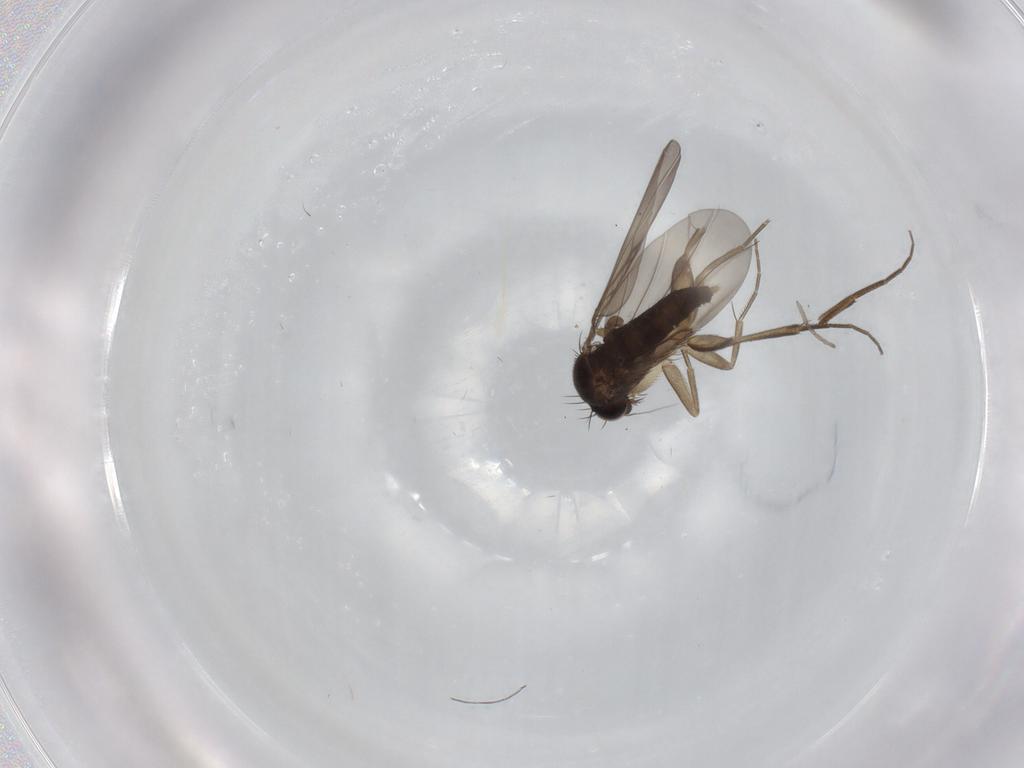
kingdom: Animalia
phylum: Arthropoda
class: Insecta
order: Diptera
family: Phoridae
